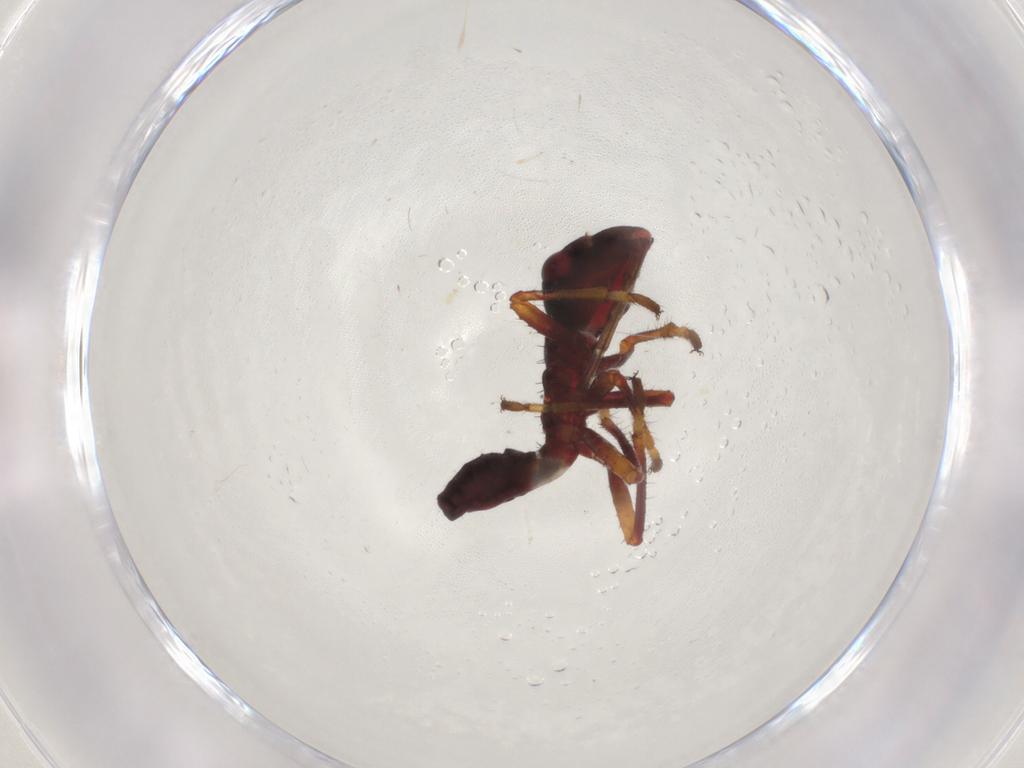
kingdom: Animalia
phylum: Arthropoda
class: Insecta
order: Hemiptera
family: Alydidae
